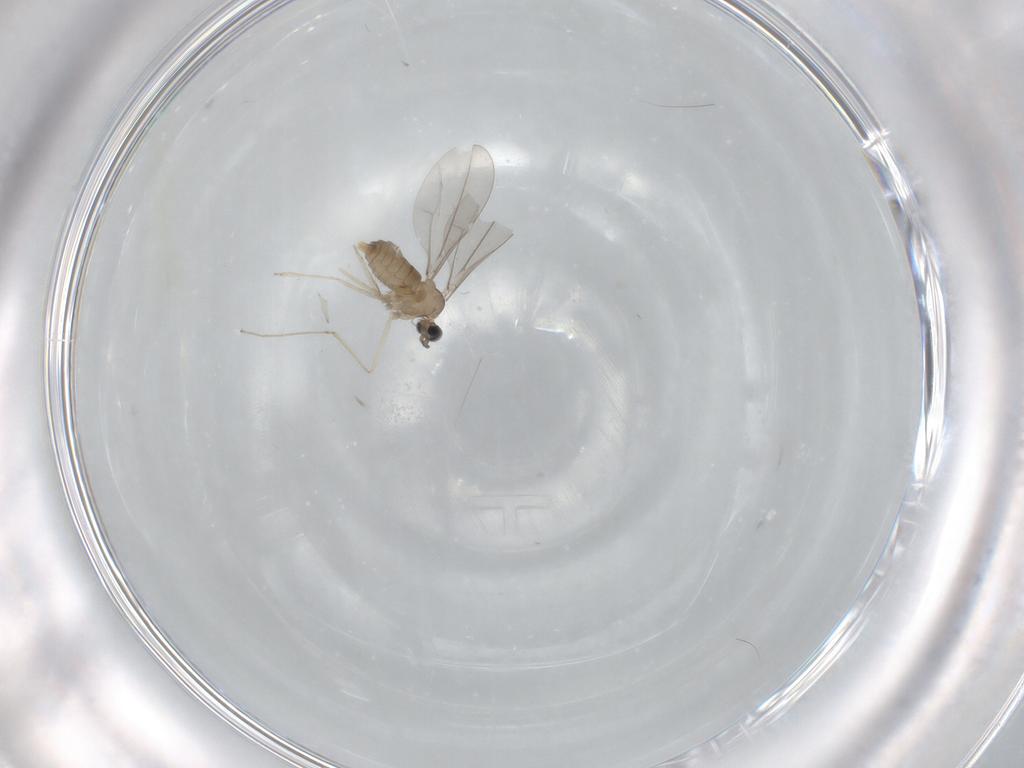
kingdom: Animalia
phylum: Arthropoda
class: Insecta
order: Diptera
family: Cecidomyiidae
